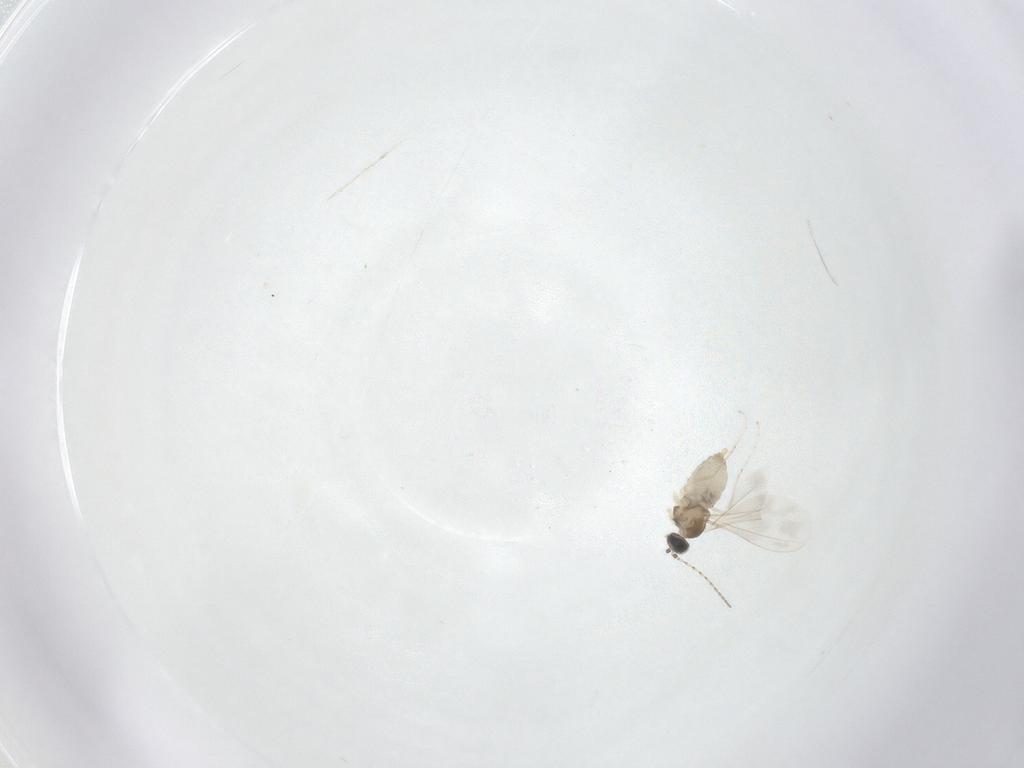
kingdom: Animalia
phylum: Arthropoda
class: Insecta
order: Diptera
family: Cecidomyiidae
